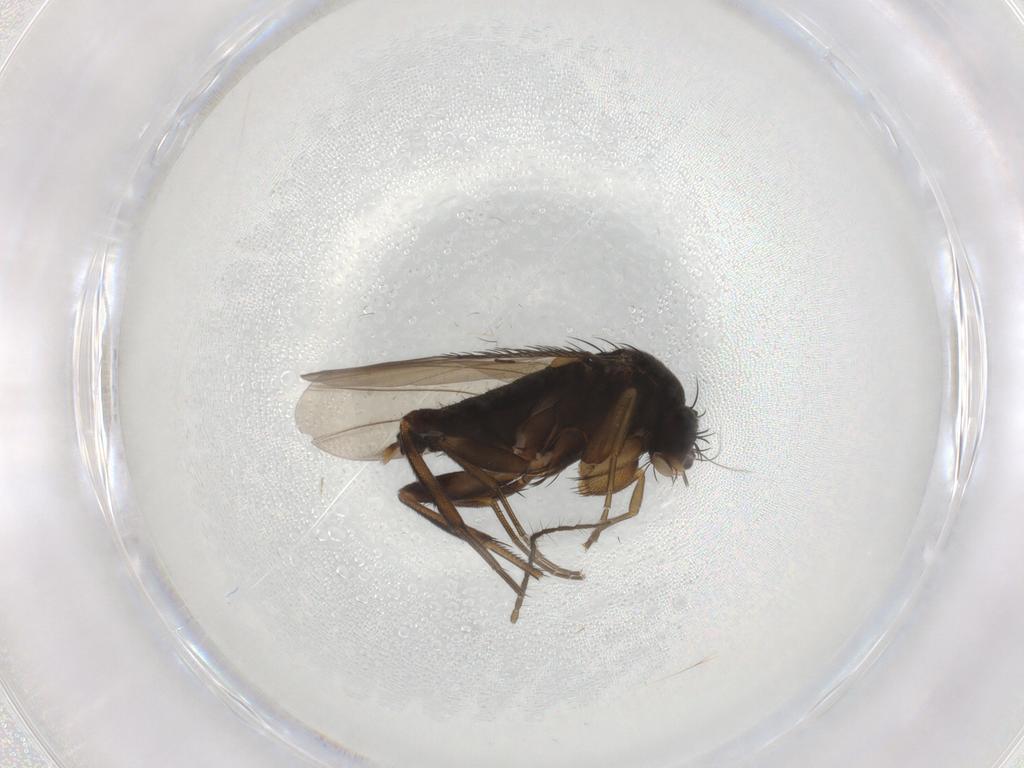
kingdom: Animalia
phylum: Arthropoda
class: Insecta
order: Diptera
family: Phoridae
